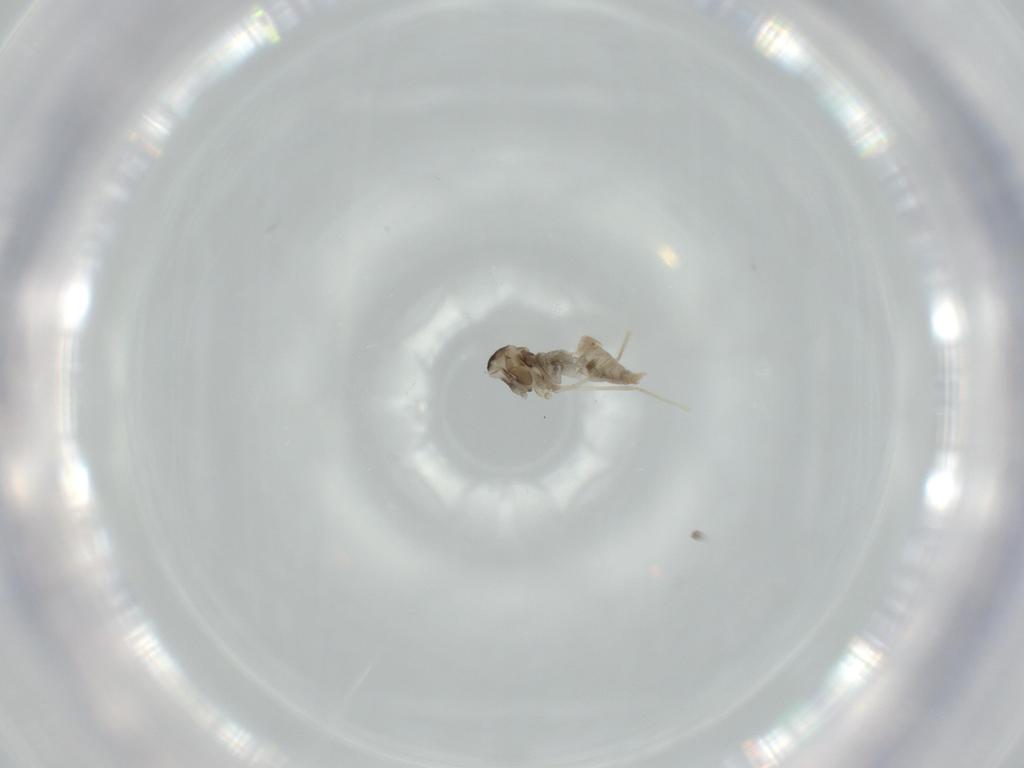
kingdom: Animalia
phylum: Arthropoda
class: Insecta
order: Diptera
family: Cecidomyiidae
